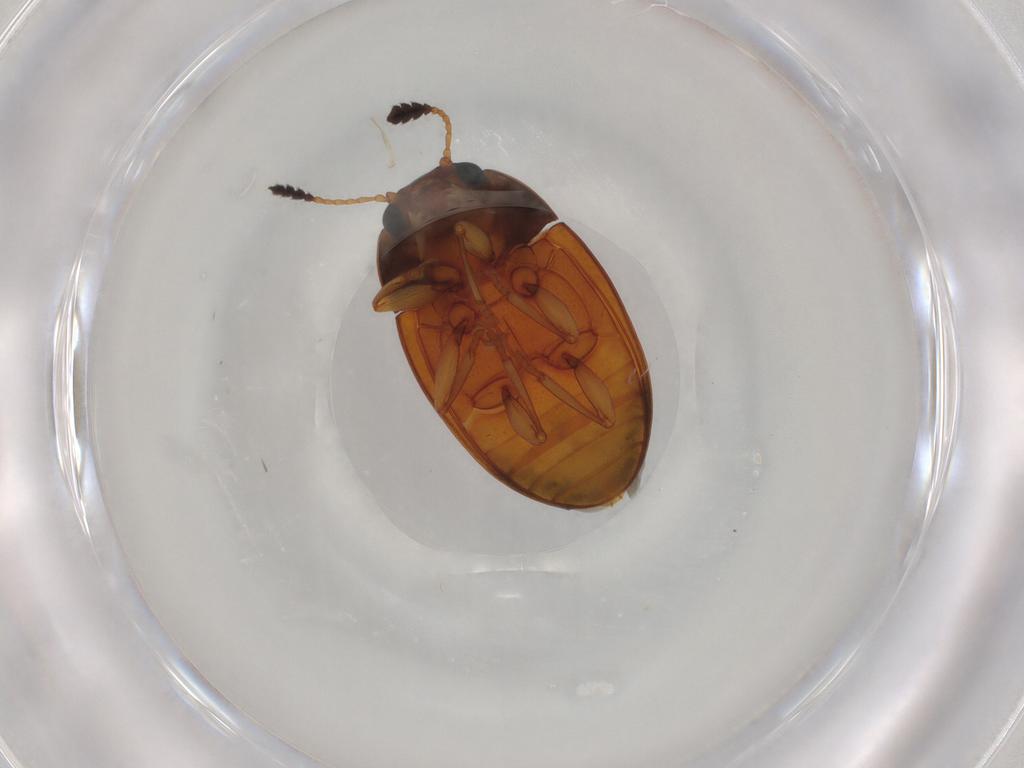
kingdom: Animalia
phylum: Arthropoda
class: Insecta
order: Coleoptera
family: Erotylidae
